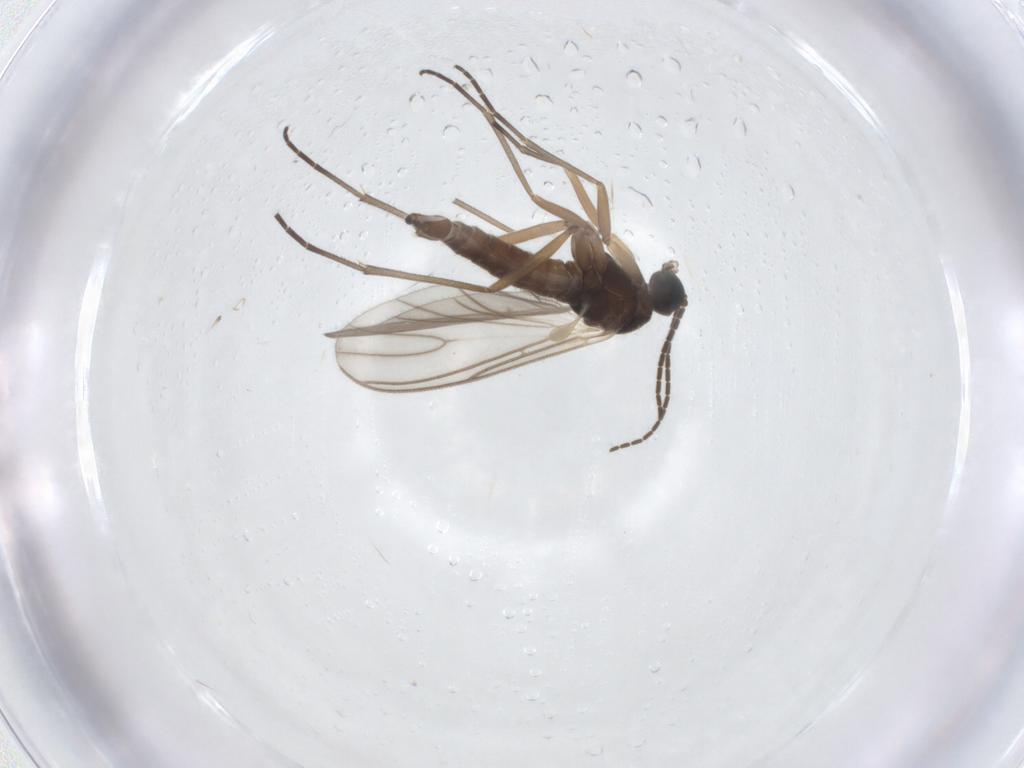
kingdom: Animalia
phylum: Arthropoda
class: Insecta
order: Diptera
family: Sciaridae
